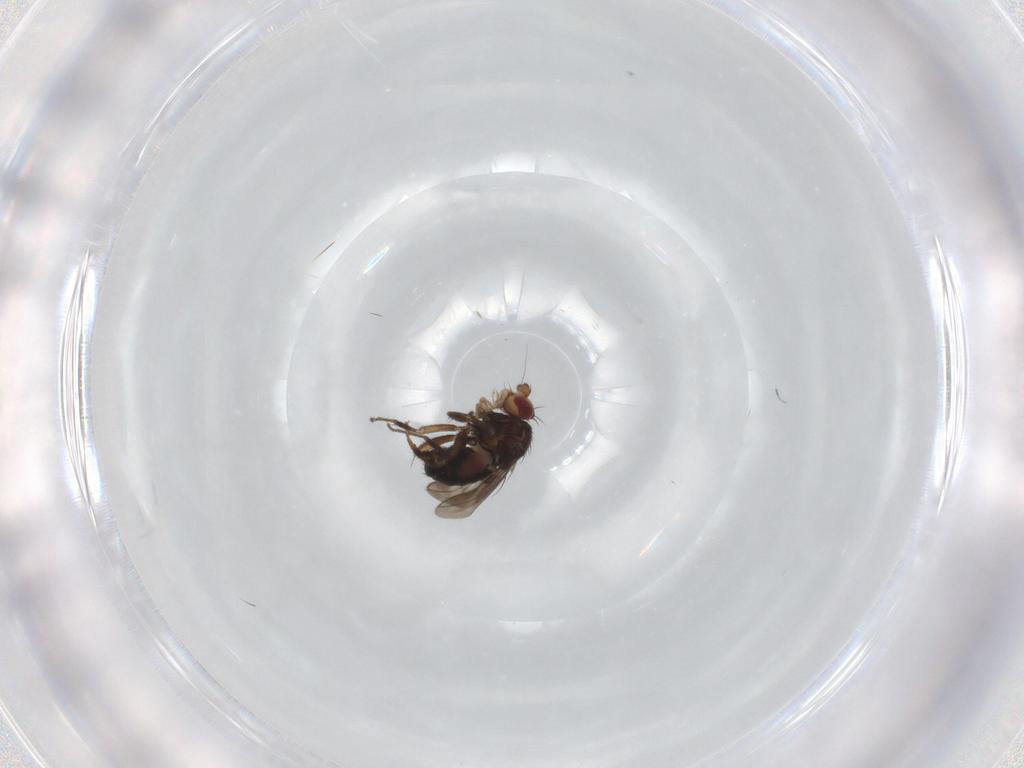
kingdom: Animalia
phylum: Arthropoda
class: Insecta
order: Diptera
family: Sphaeroceridae
